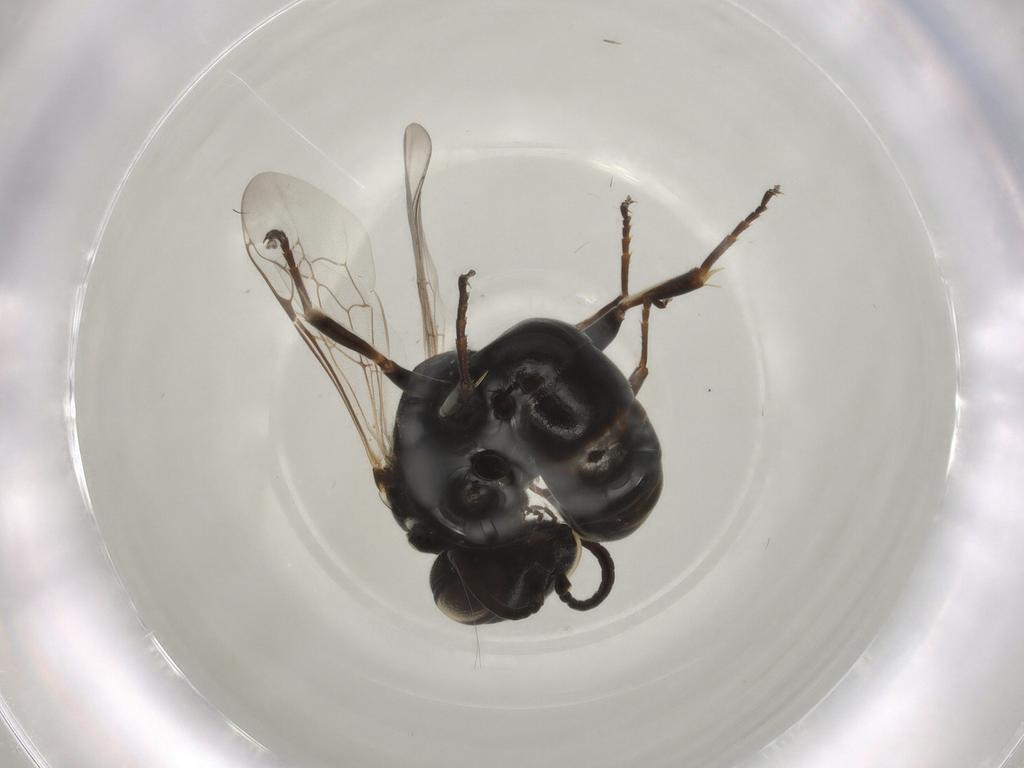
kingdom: Animalia
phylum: Arthropoda
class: Insecta
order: Hymenoptera
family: Crabronidae
